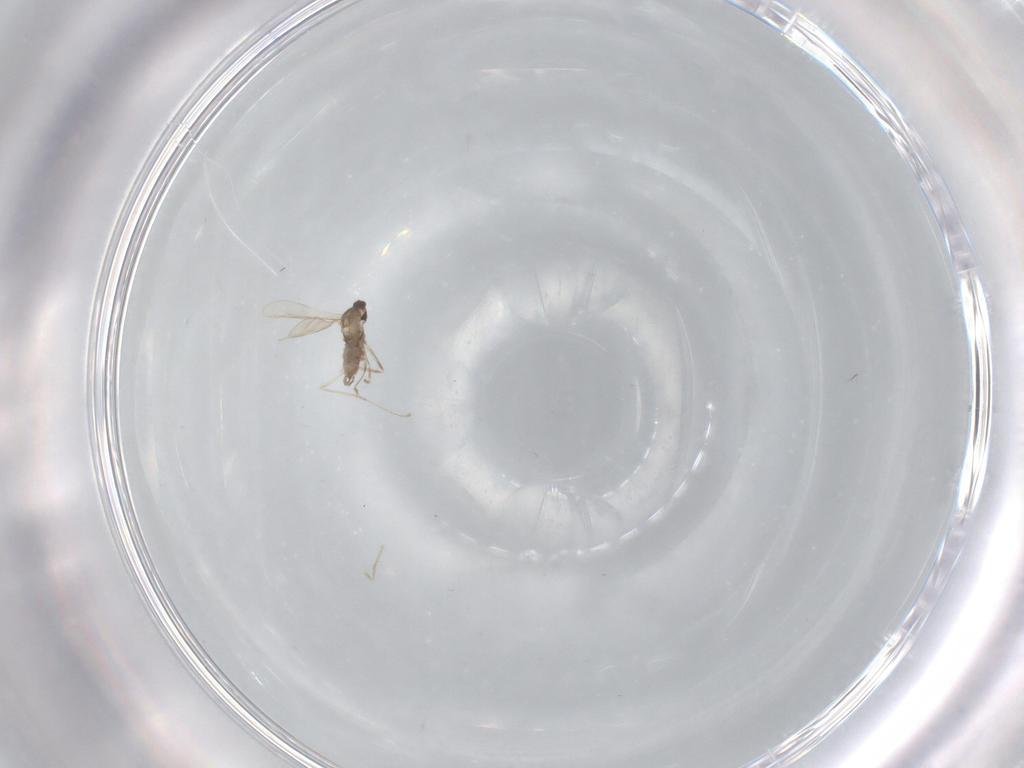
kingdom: Animalia
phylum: Arthropoda
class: Insecta
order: Diptera
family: Cecidomyiidae
